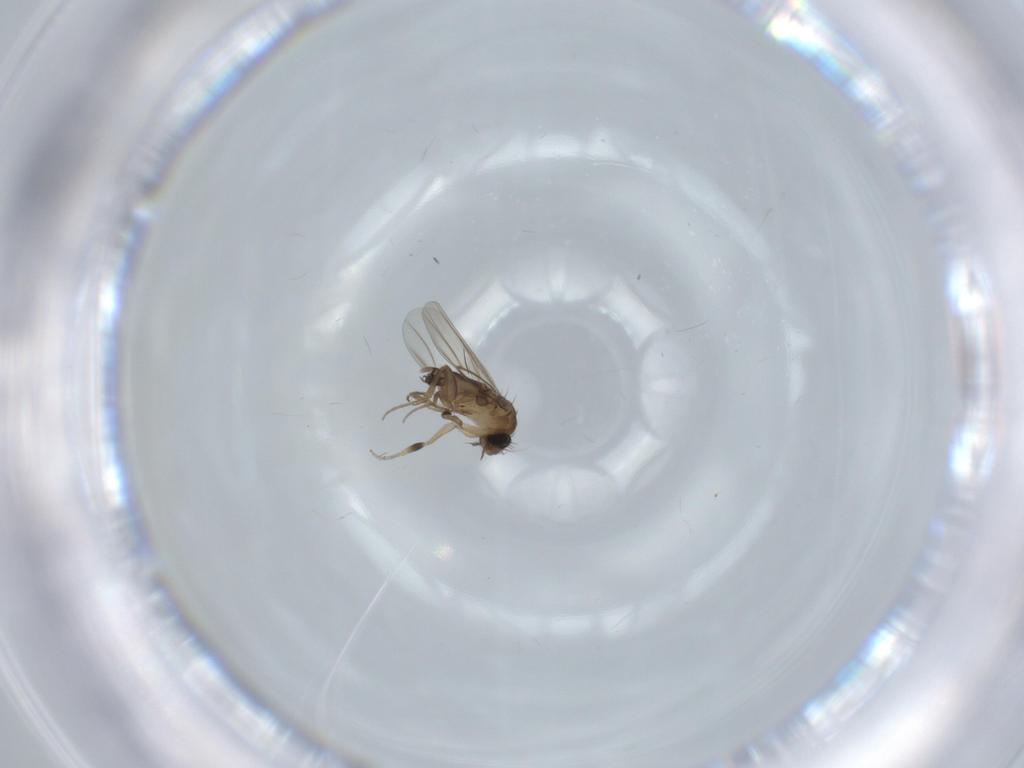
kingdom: Animalia
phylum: Arthropoda
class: Insecta
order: Diptera
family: Phoridae
